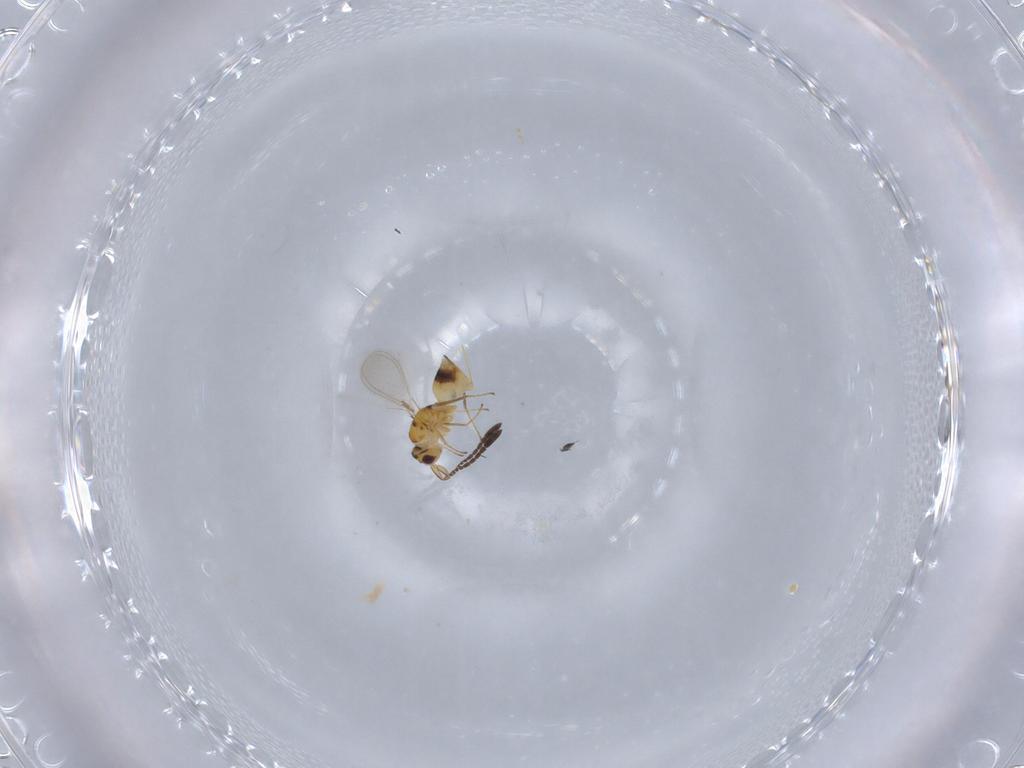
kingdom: Animalia
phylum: Arthropoda
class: Insecta
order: Hymenoptera
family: Mymaridae
